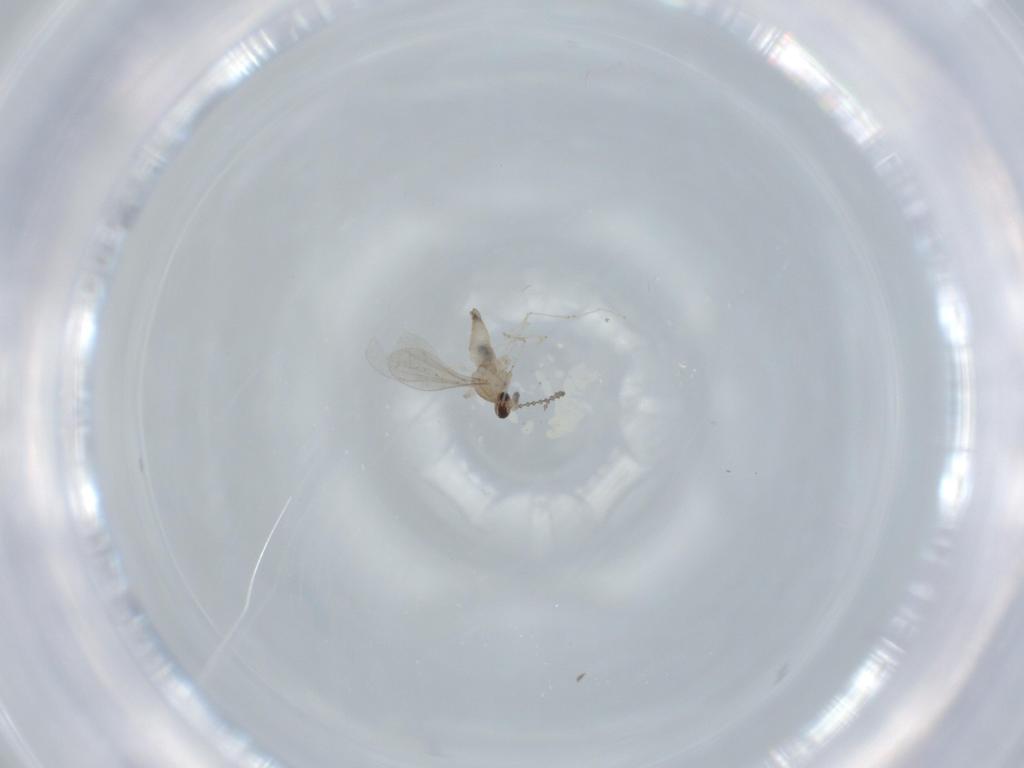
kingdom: Animalia
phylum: Arthropoda
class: Insecta
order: Diptera
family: Cecidomyiidae
